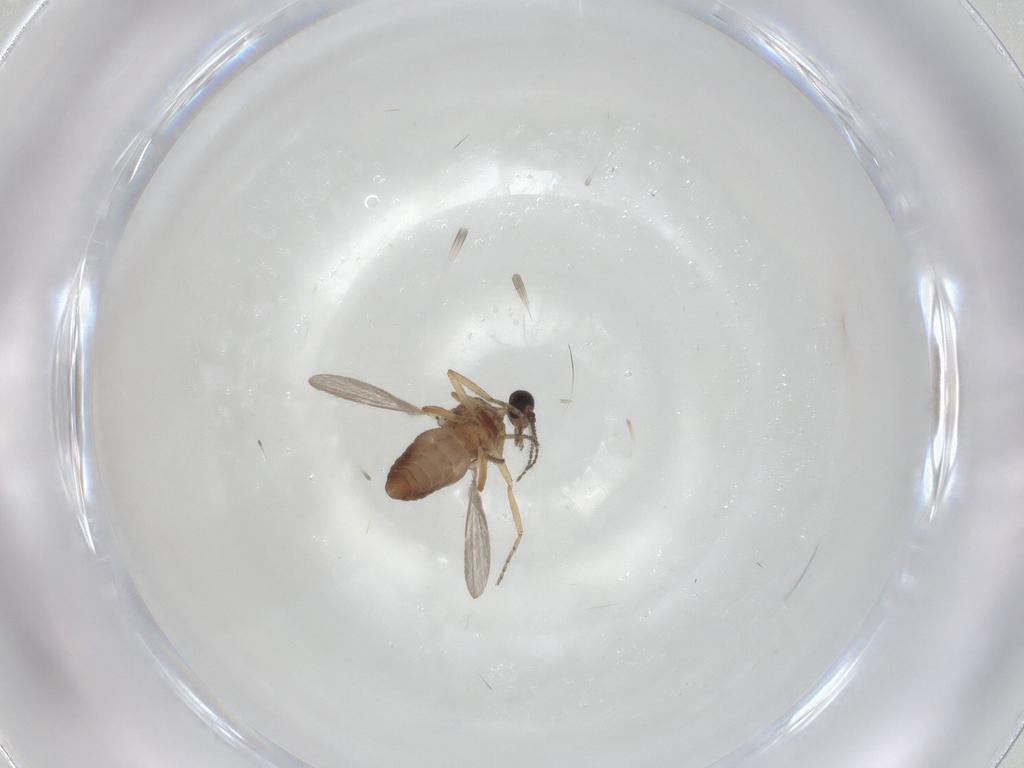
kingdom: Animalia
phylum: Arthropoda
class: Insecta
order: Diptera
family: Ceratopogonidae
